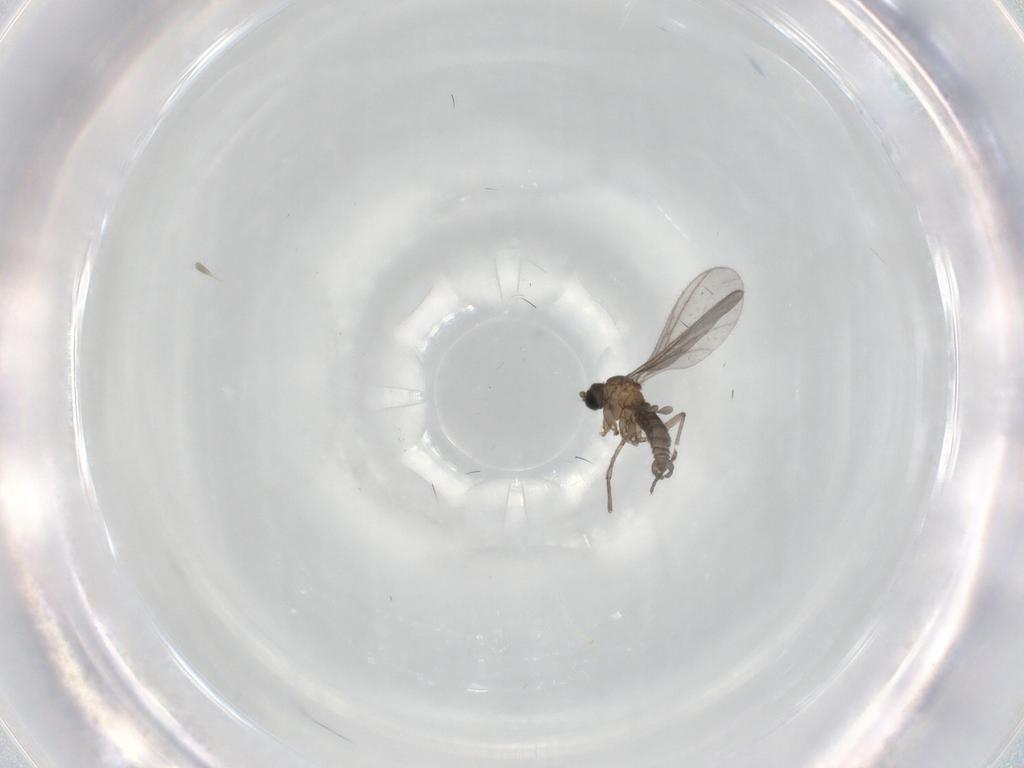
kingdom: Animalia
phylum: Arthropoda
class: Insecta
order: Diptera
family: Sciaridae
